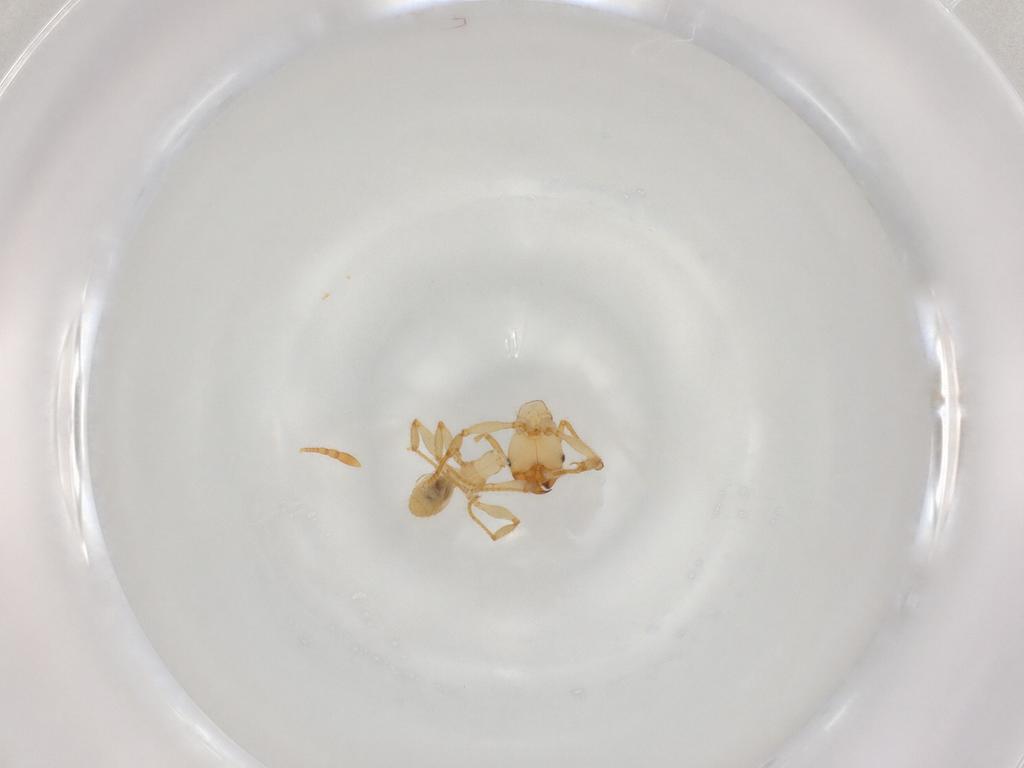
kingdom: Animalia
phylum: Arthropoda
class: Insecta
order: Hymenoptera
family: Formicidae
